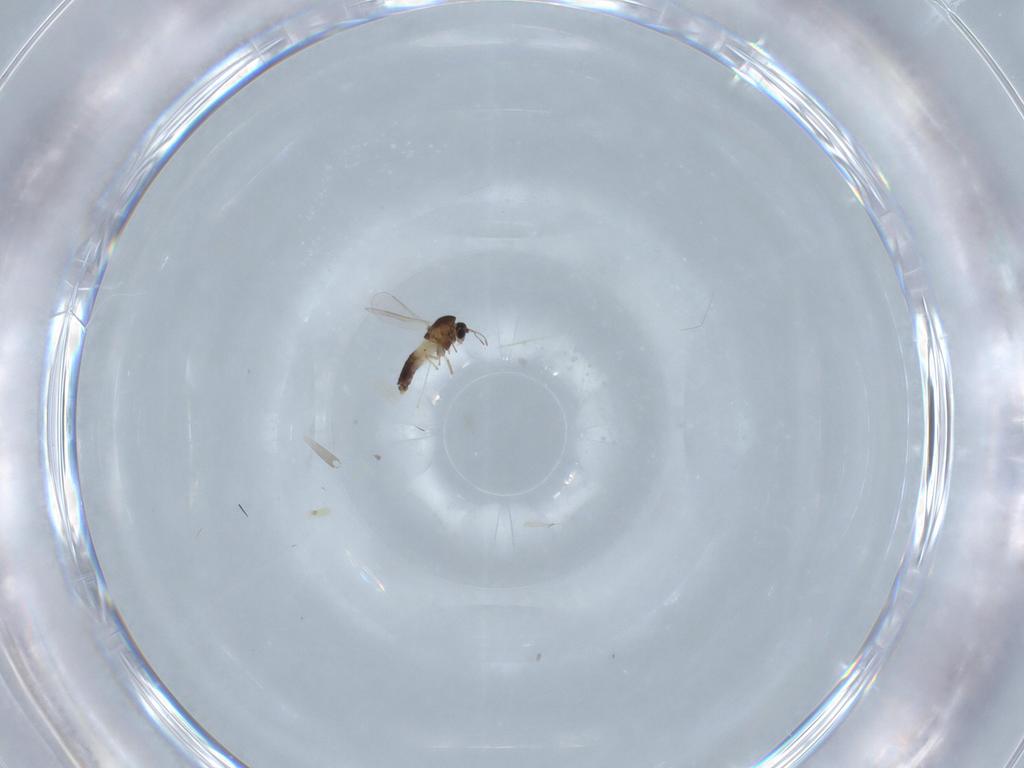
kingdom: Animalia
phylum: Arthropoda
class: Insecta
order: Diptera
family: Chironomidae
